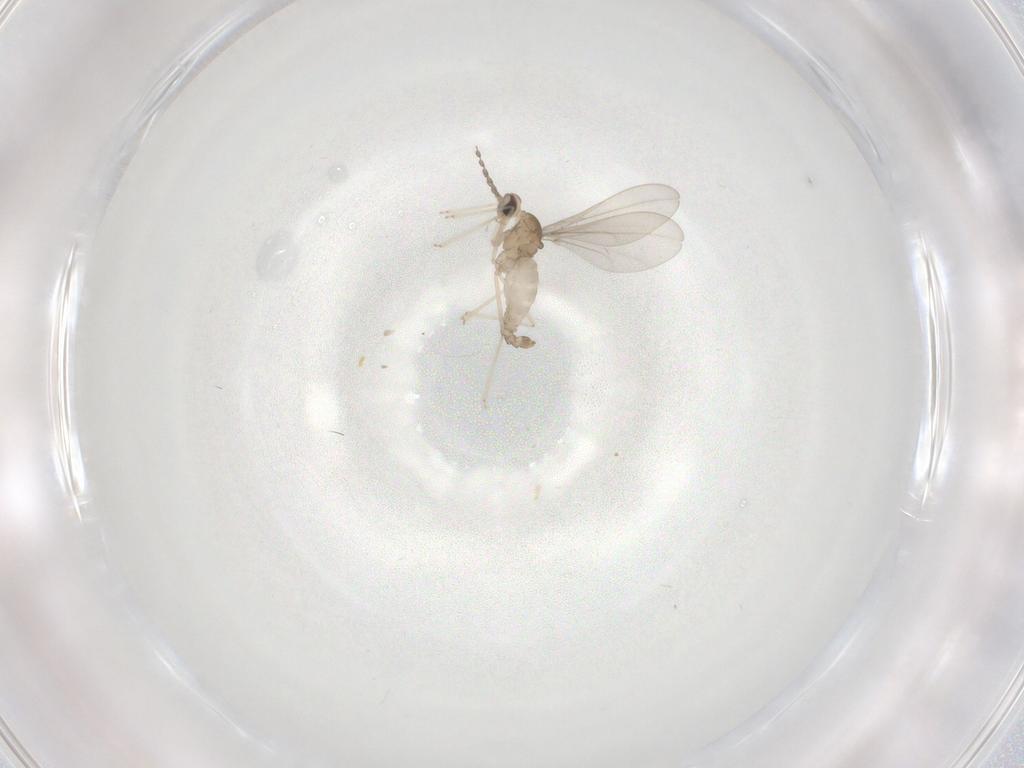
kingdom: Animalia
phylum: Arthropoda
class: Insecta
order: Diptera
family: Cecidomyiidae
